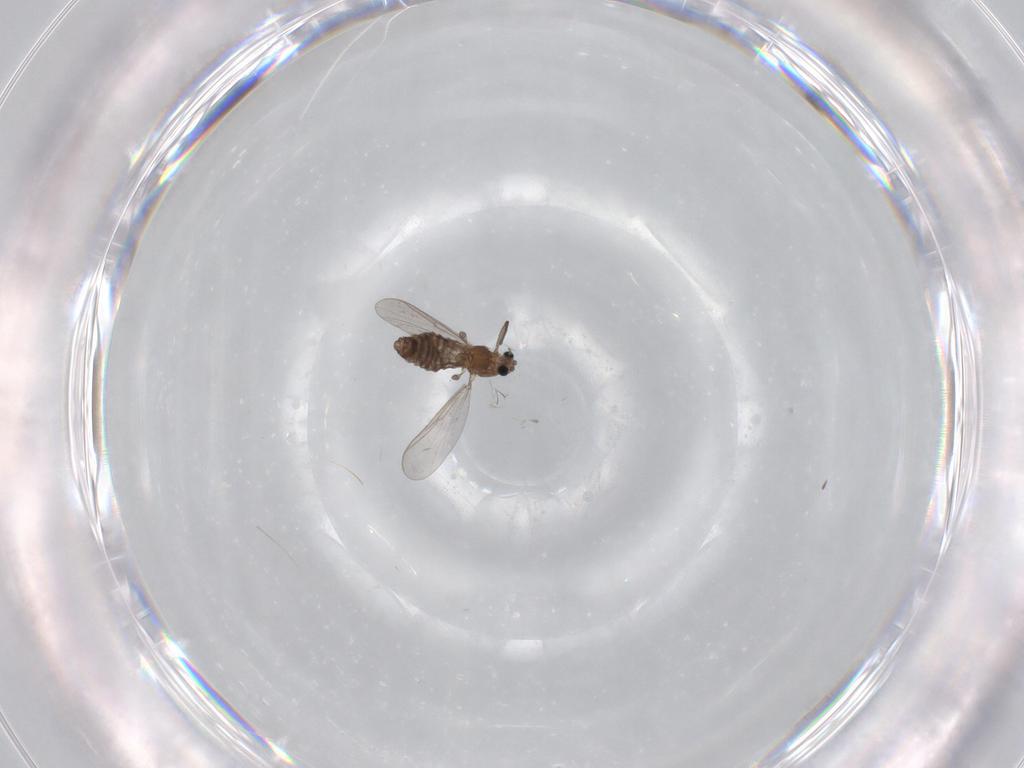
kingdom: Animalia
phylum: Arthropoda
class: Insecta
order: Diptera
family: Chironomidae
